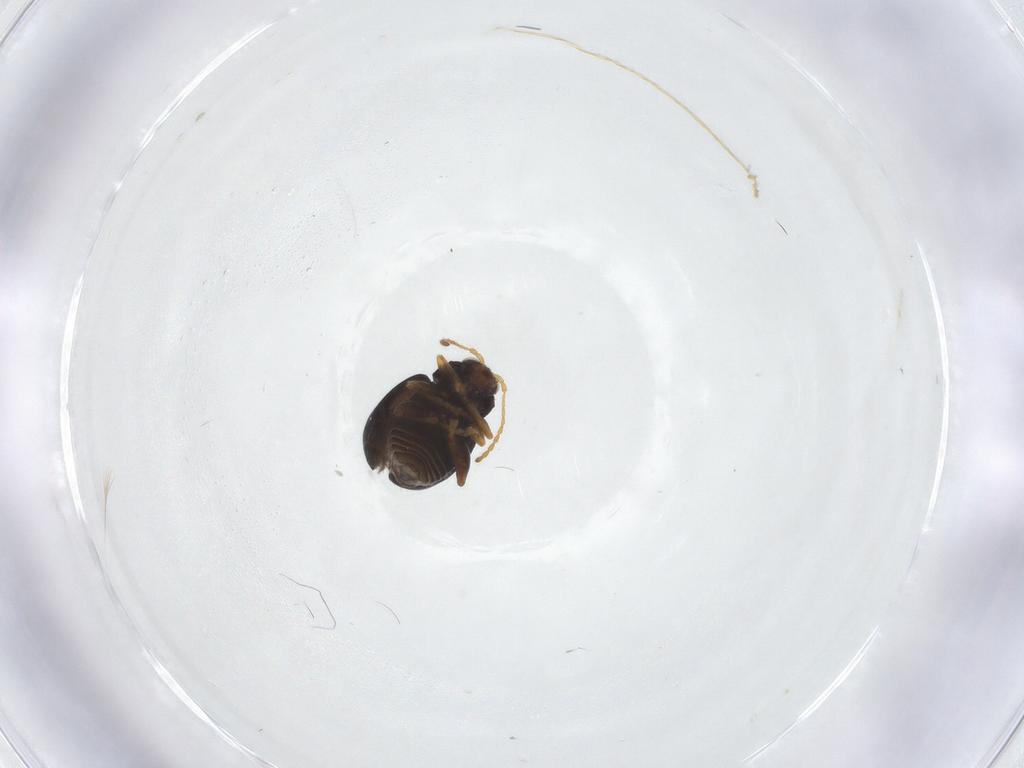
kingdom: Animalia
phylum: Arthropoda
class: Insecta
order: Coleoptera
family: Chrysomelidae
